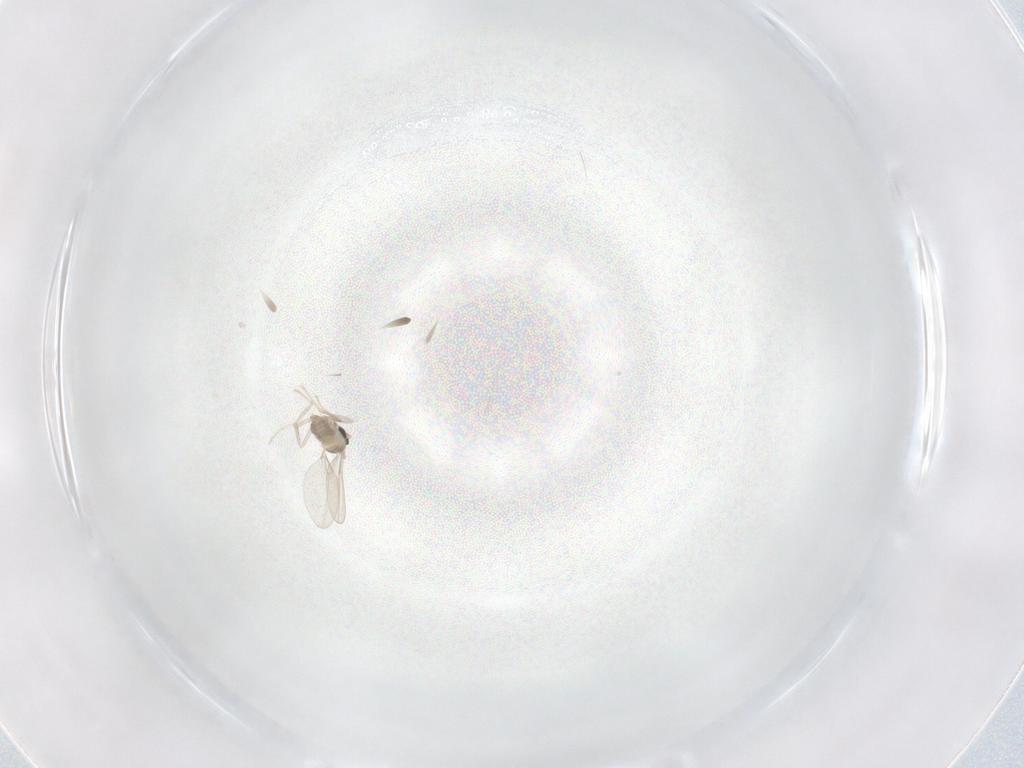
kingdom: Animalia
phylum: Arthropoda
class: Insecta
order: Diptera
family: Cecidomyiidae
